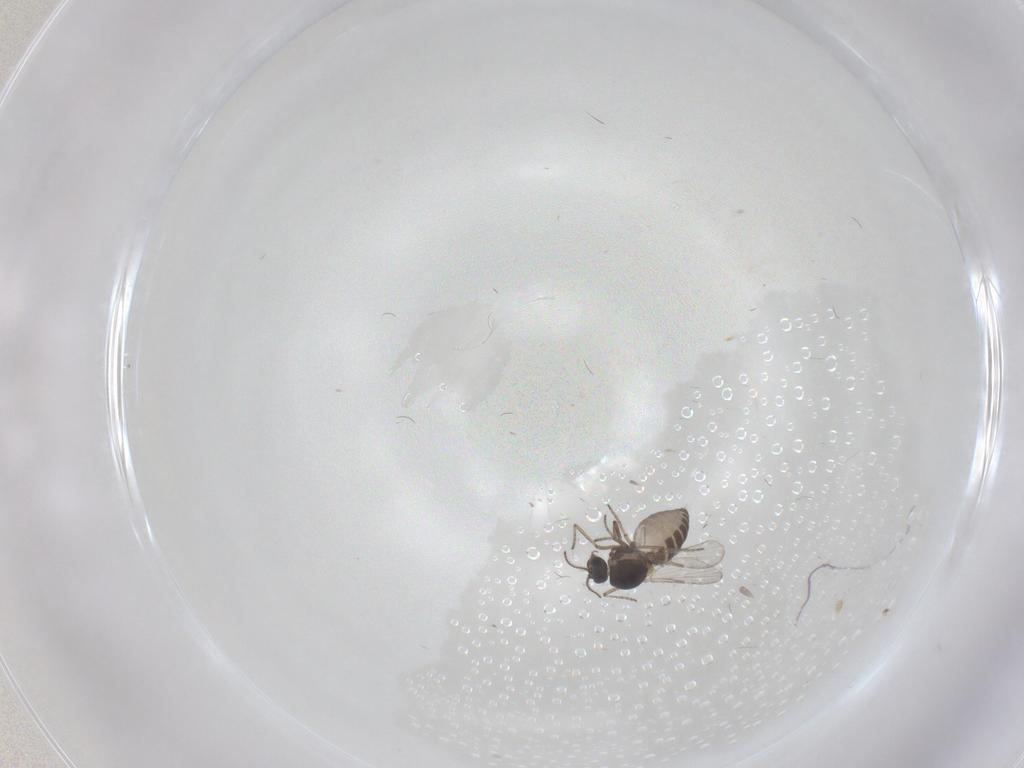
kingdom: Animalia
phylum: Arthropoda
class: Insecta
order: Diptera
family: Ceratopogonidae
